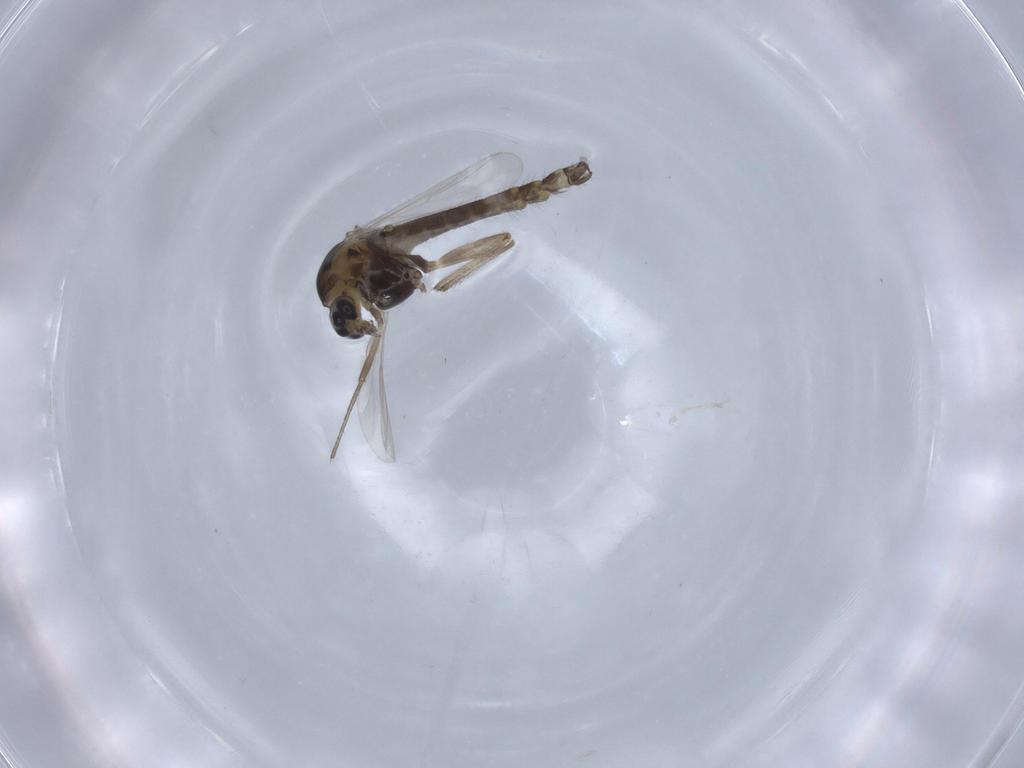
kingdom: Animalia
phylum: Arthropoda
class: Insecta
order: Diptera
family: Chironomidae
